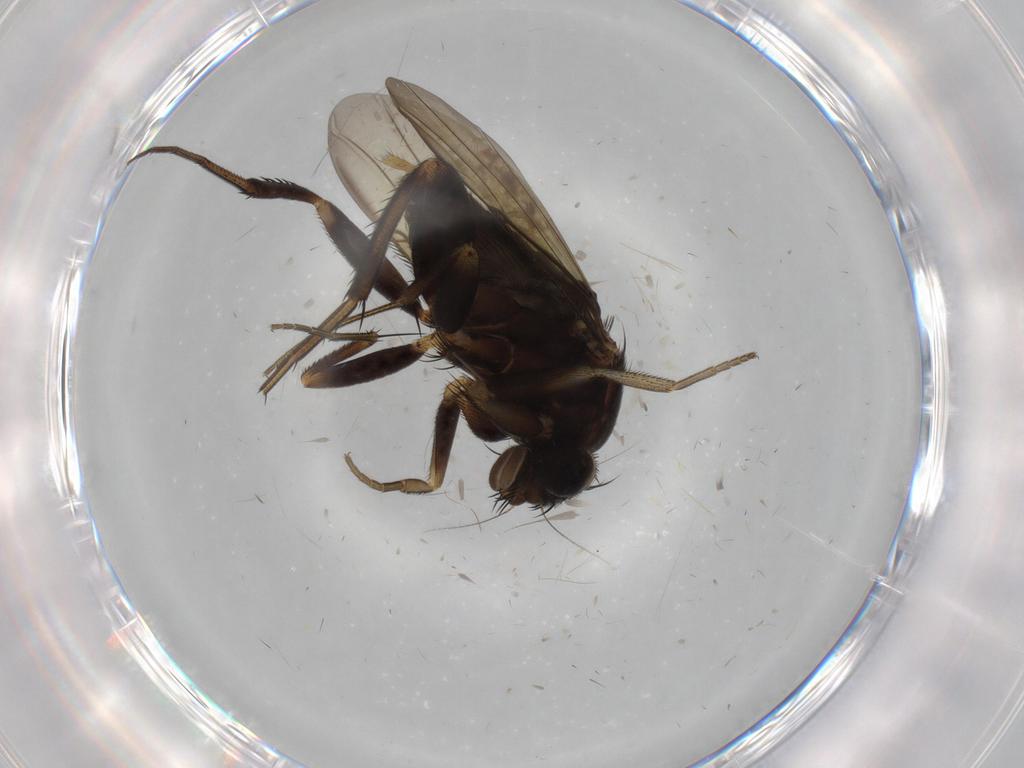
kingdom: Animalia
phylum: Arthropoda
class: Insecta
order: Diptera
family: Phoridae
